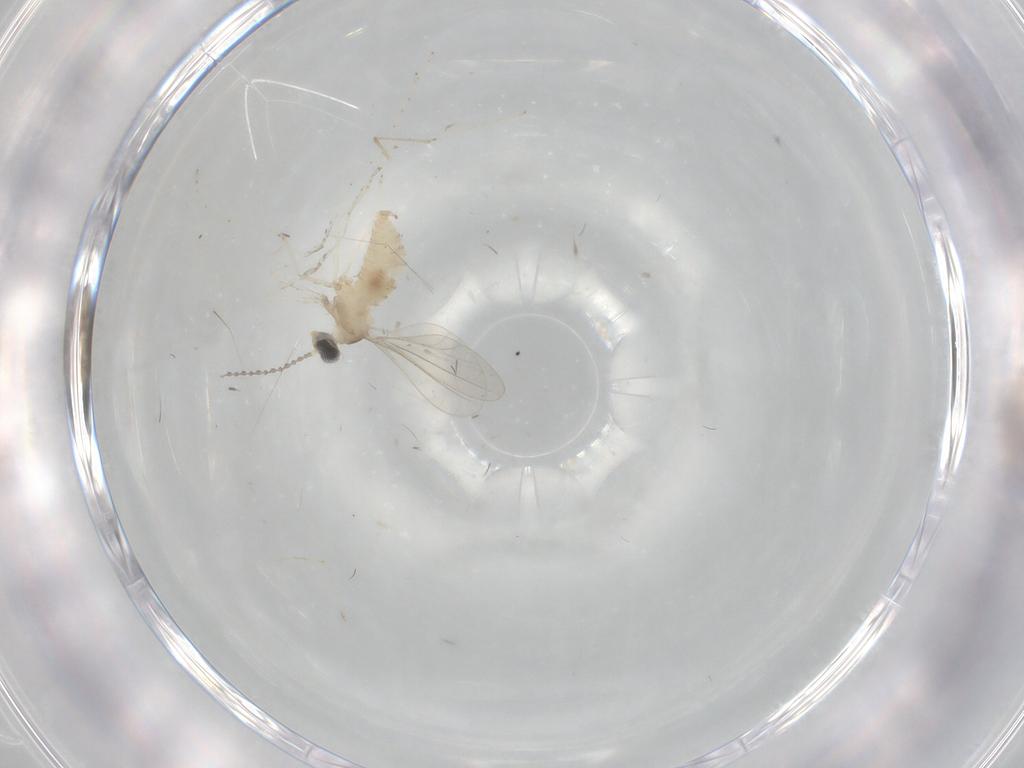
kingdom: Animalia
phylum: Arthropoda
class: Insecta
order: Diptera
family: Cecidomyiidae
